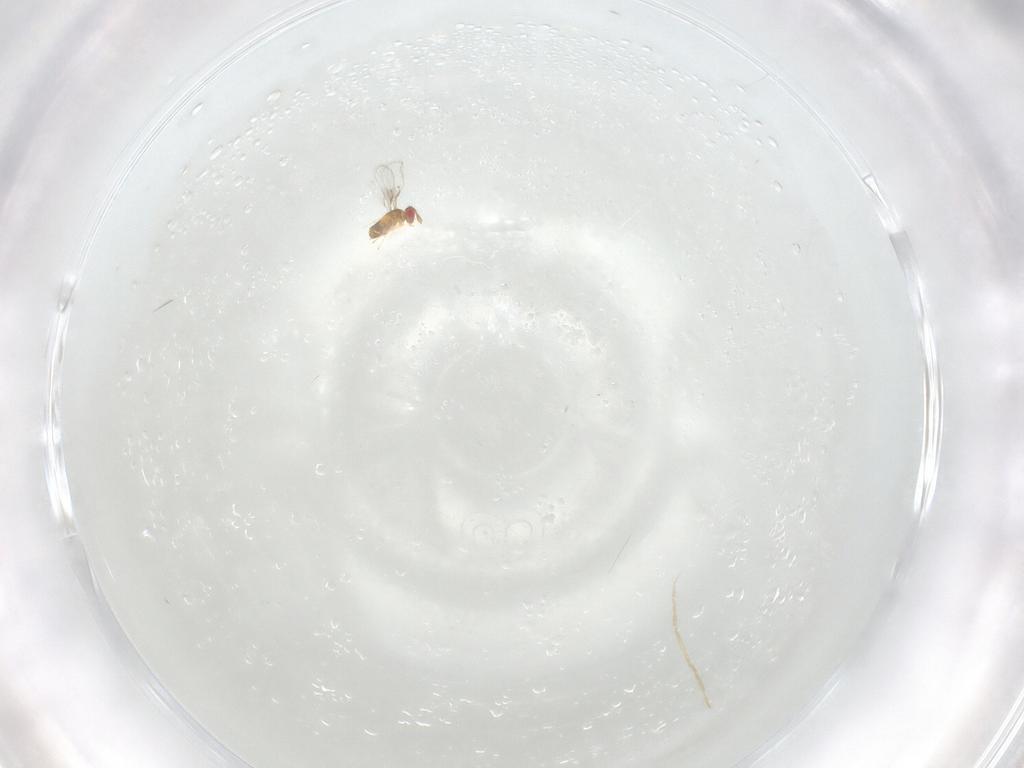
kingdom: Animalia
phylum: Arthropoda
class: Insecta
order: Hymenoptera
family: Trichogrammatidae
